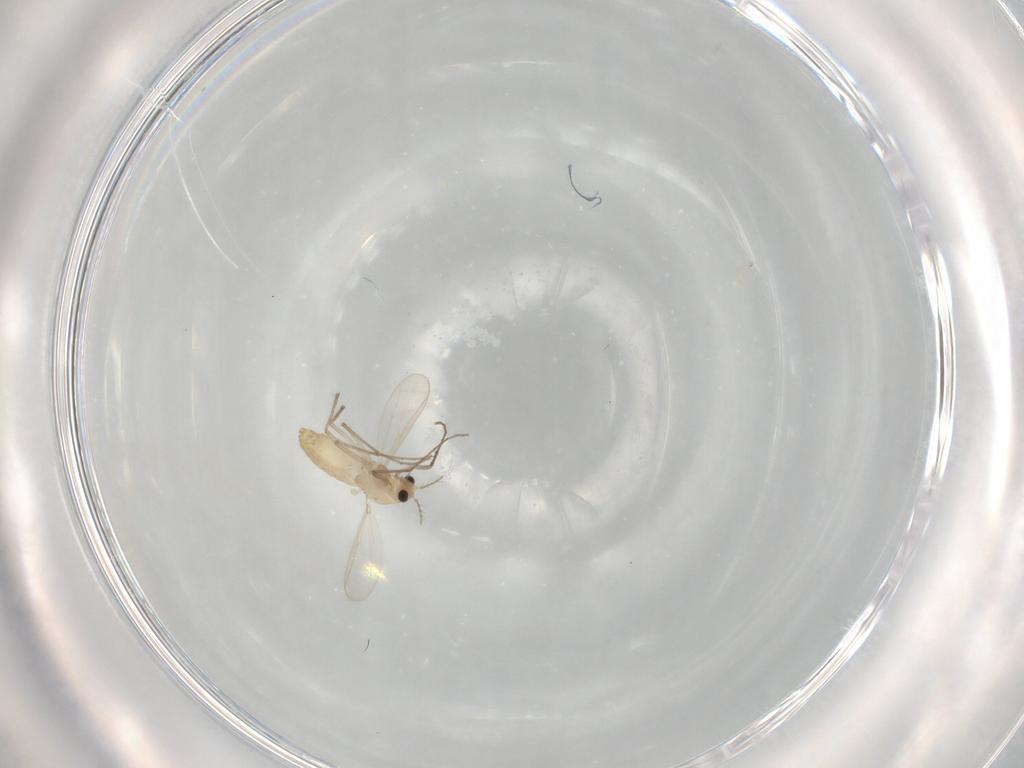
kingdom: Animalia
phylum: Arthropoda
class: Insecta
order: Diptera
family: Chironomidae
